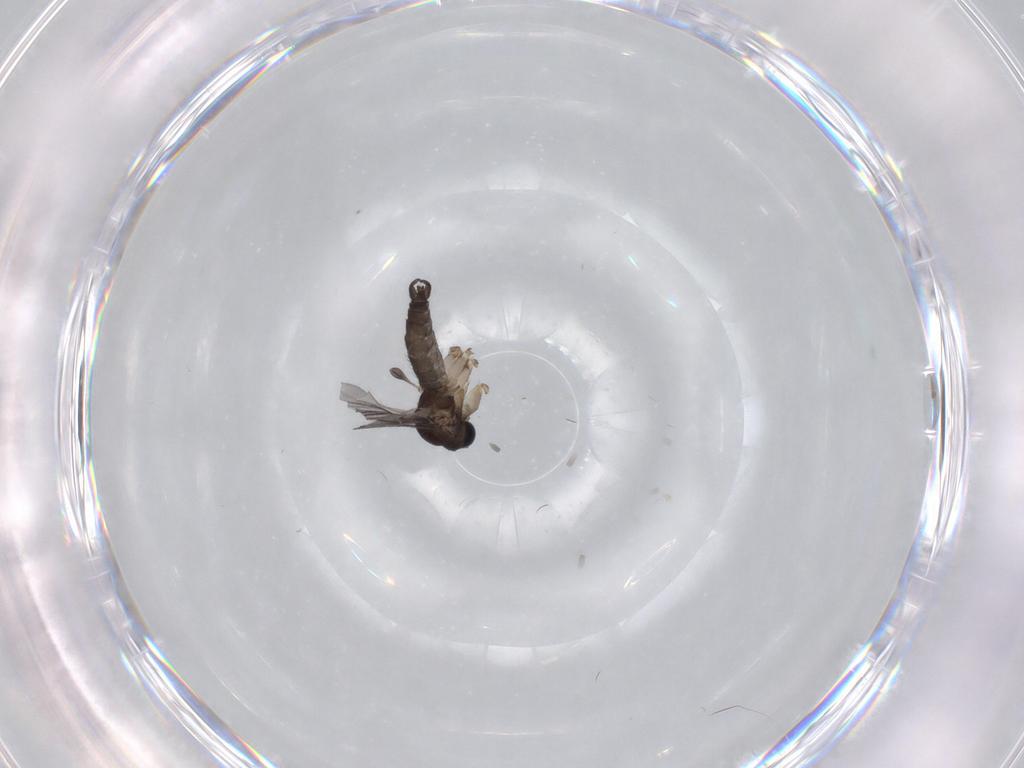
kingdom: Animalia
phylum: Arthropoda
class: Insecta
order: Diptera
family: Sciaridae
